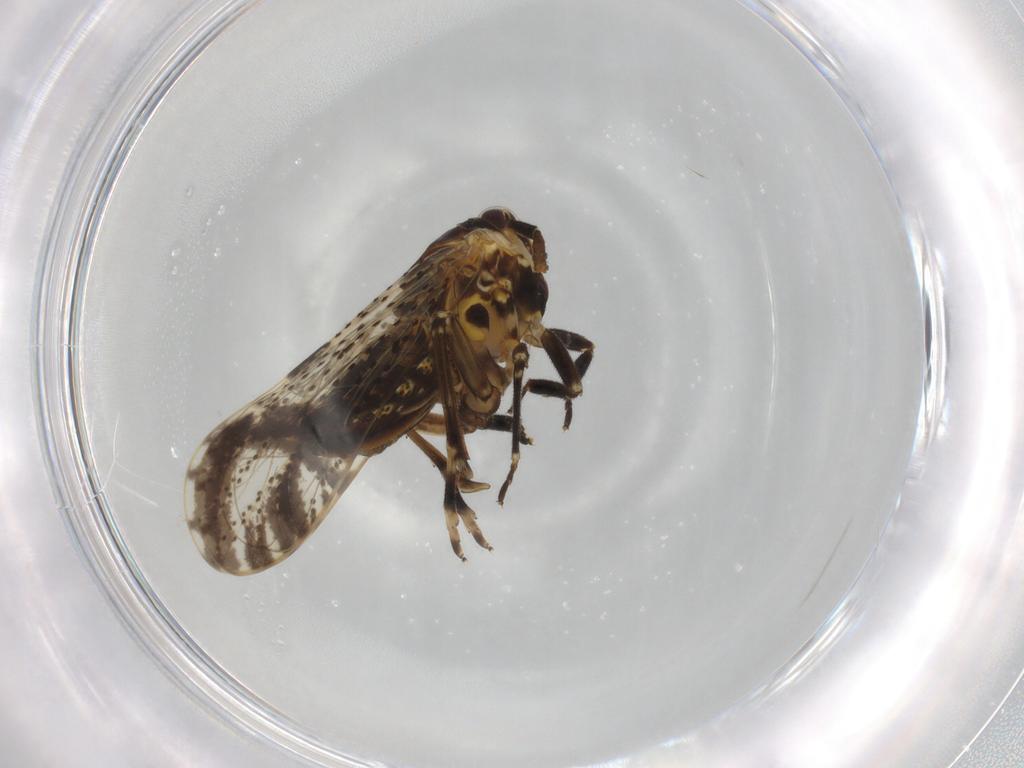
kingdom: Animalia
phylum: Arthropoda
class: Insecta
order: Hemiptera
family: Delphacidae
